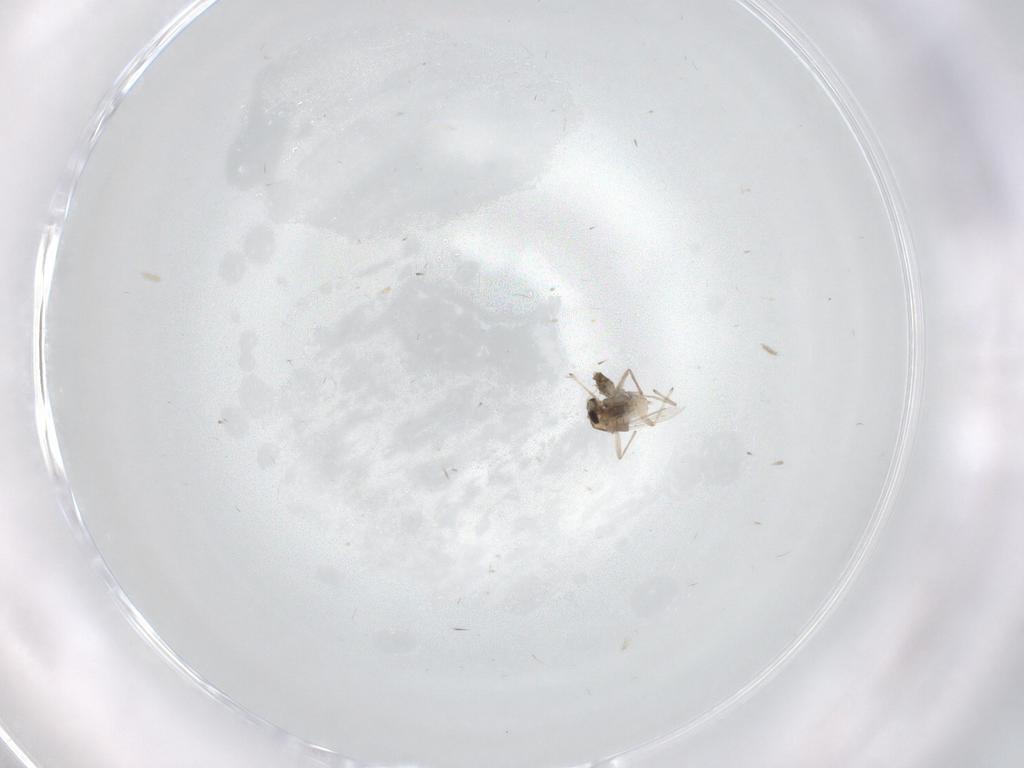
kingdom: Animalia
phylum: Arthropoda
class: Insecta
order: Diptera
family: Chironomidae
